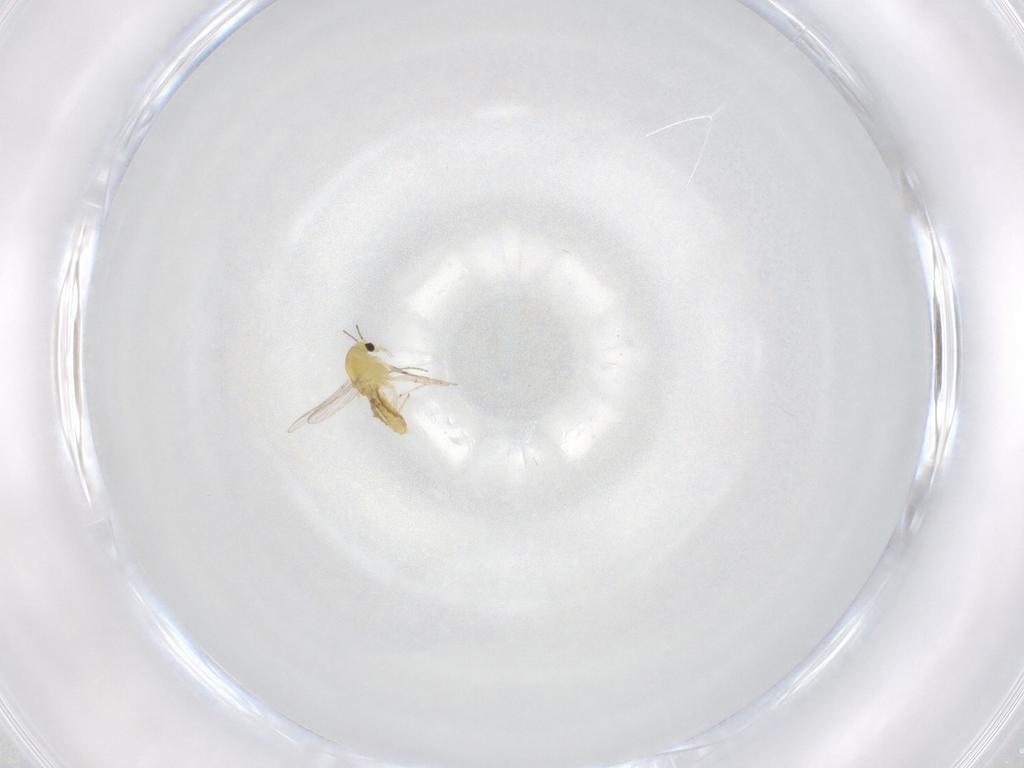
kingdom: Animalia
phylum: Arthropoda
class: Insecta
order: Diptera
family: Chironomidae
